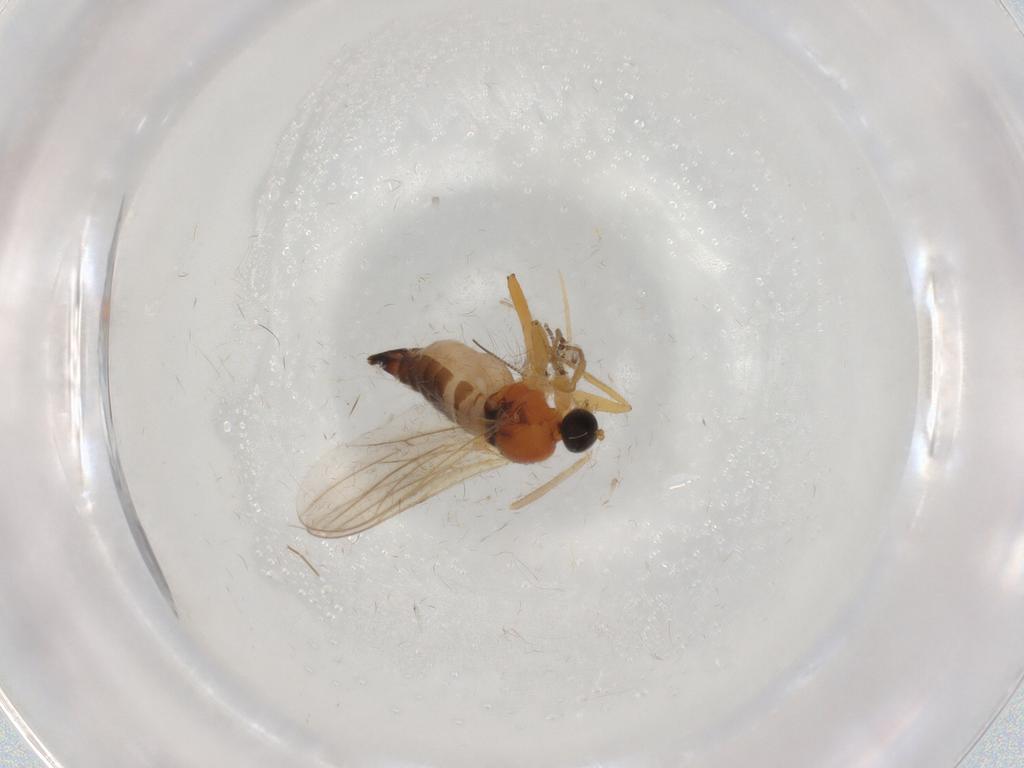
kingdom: Animalia
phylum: Arthropoda
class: Insecta
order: Diptera
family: Hybotidae
